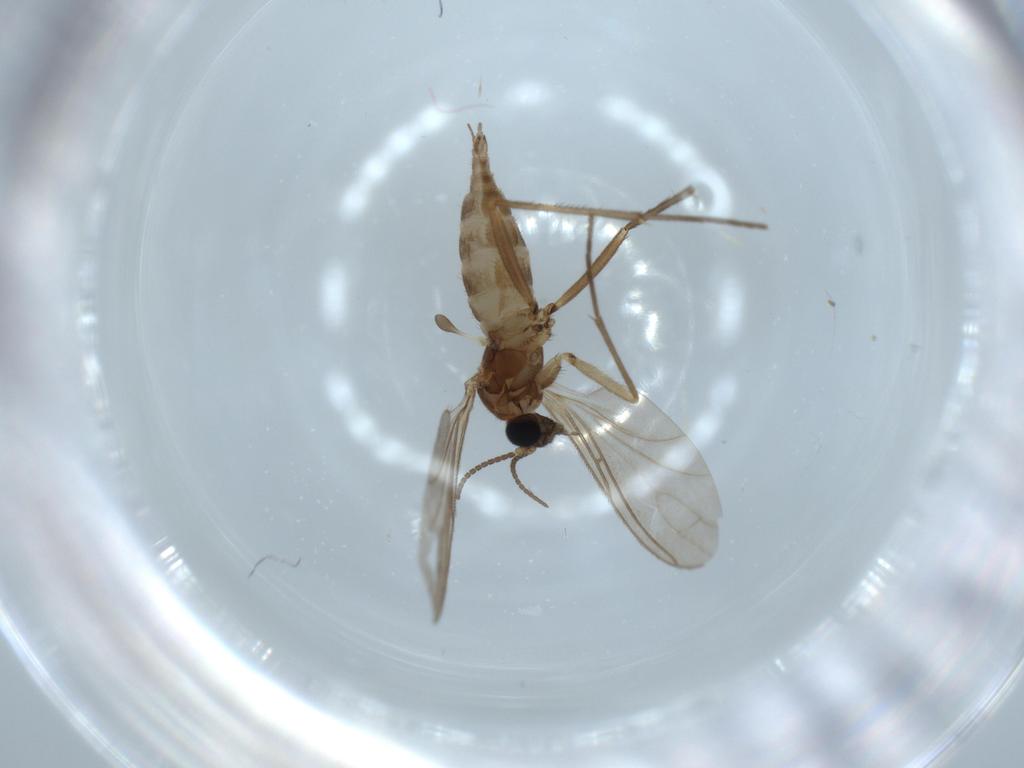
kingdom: Animalia
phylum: Arthropoda
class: Insecta
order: Diptera
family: Sciaridae
